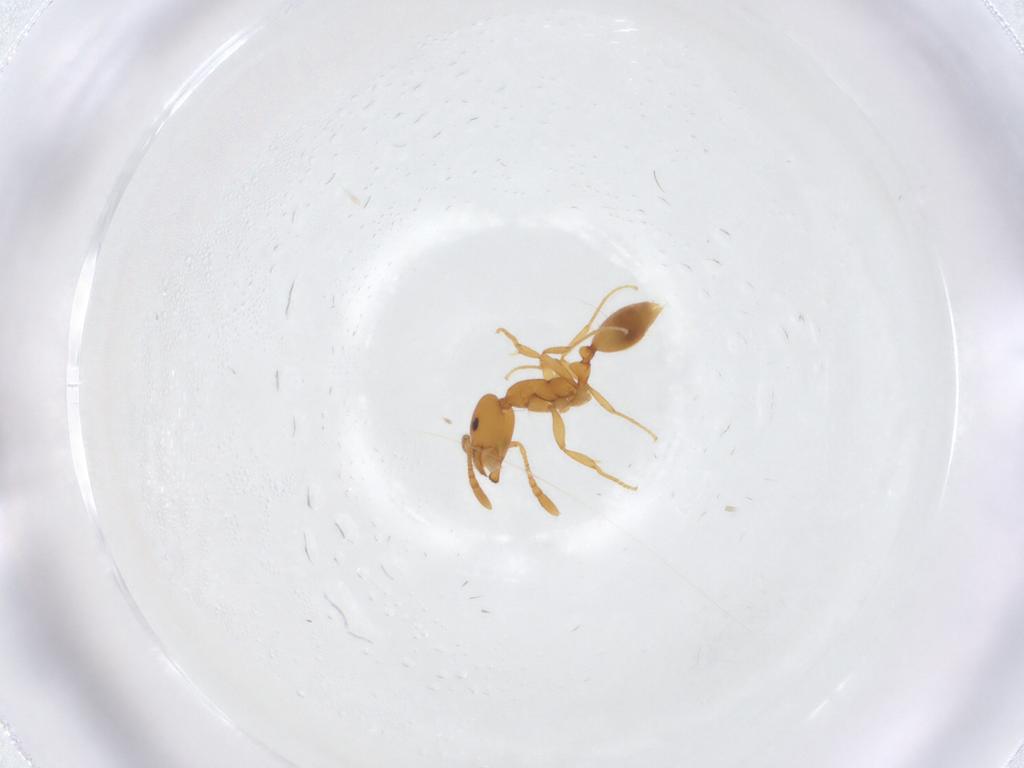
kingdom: Animalia
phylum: Arthropoda
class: Insecta
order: Hymenoptera
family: Formicidae
